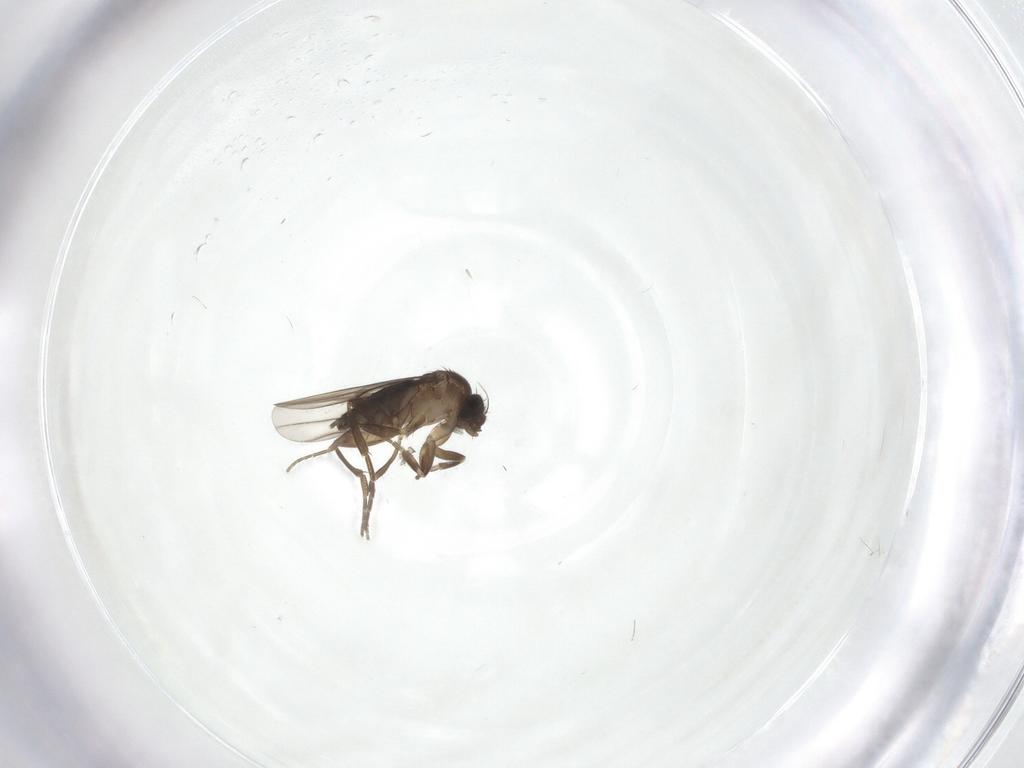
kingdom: Animalia
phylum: Arthropoda
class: Insecta
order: Diptera
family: Phoridae
